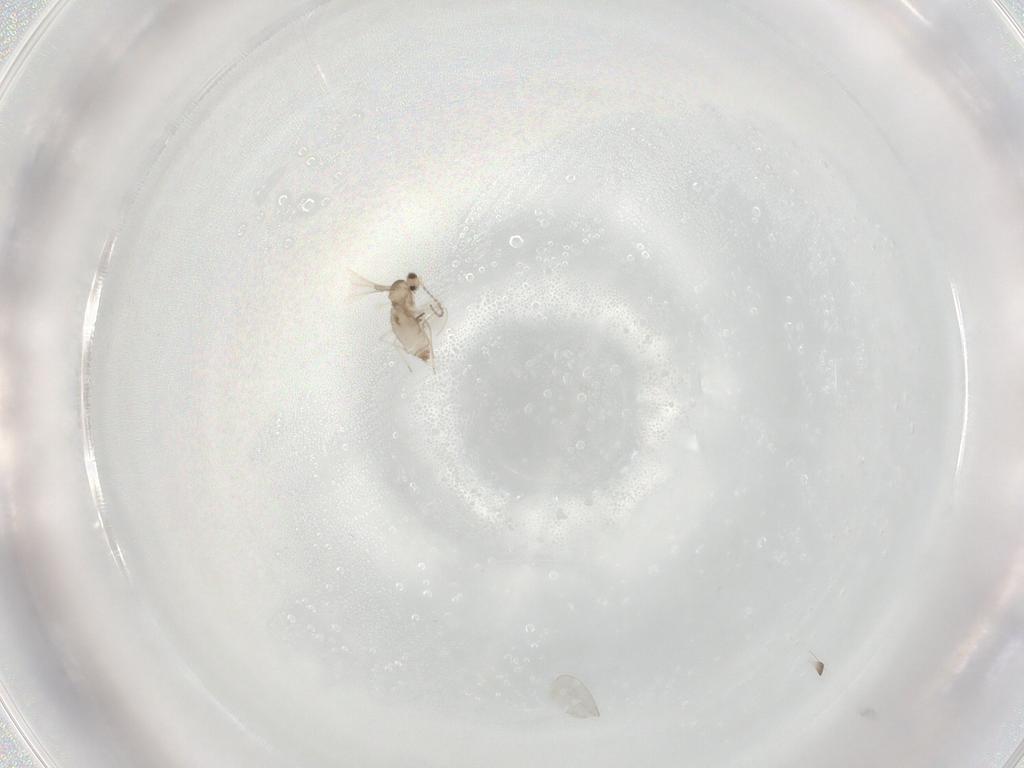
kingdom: Animalia
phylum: Arthropoda
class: Insecta
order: Diptera
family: Cecidomyiidae
